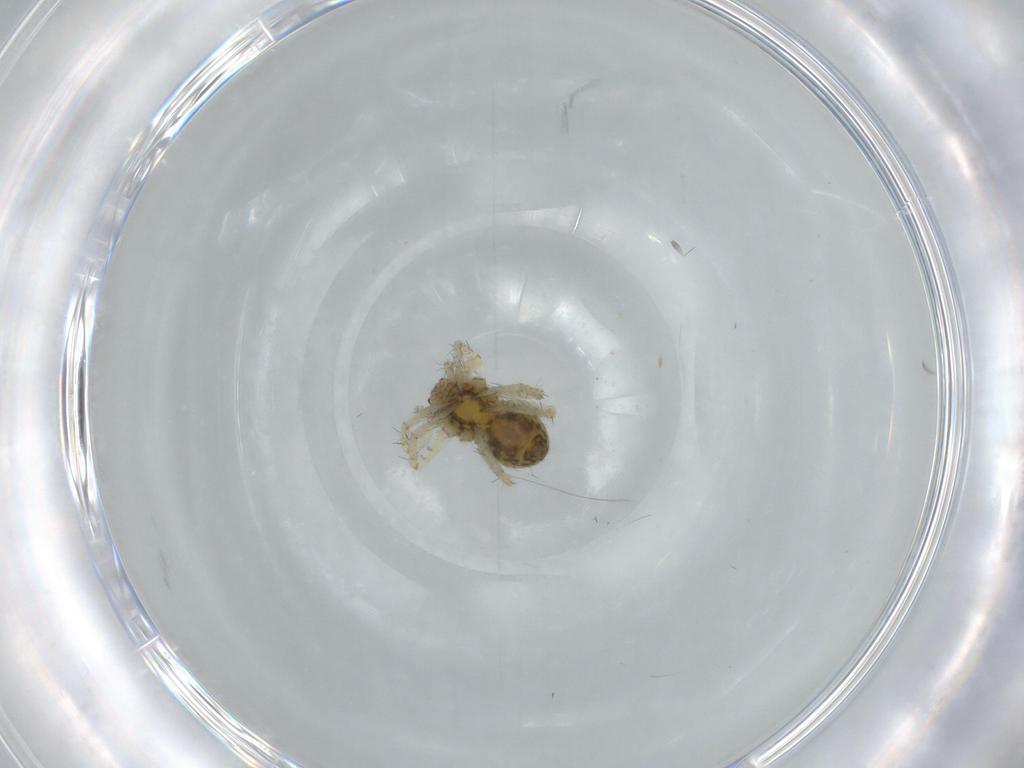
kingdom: Animalia
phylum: Arthropoda
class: Arachnida
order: Araneae
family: Pisauridae
